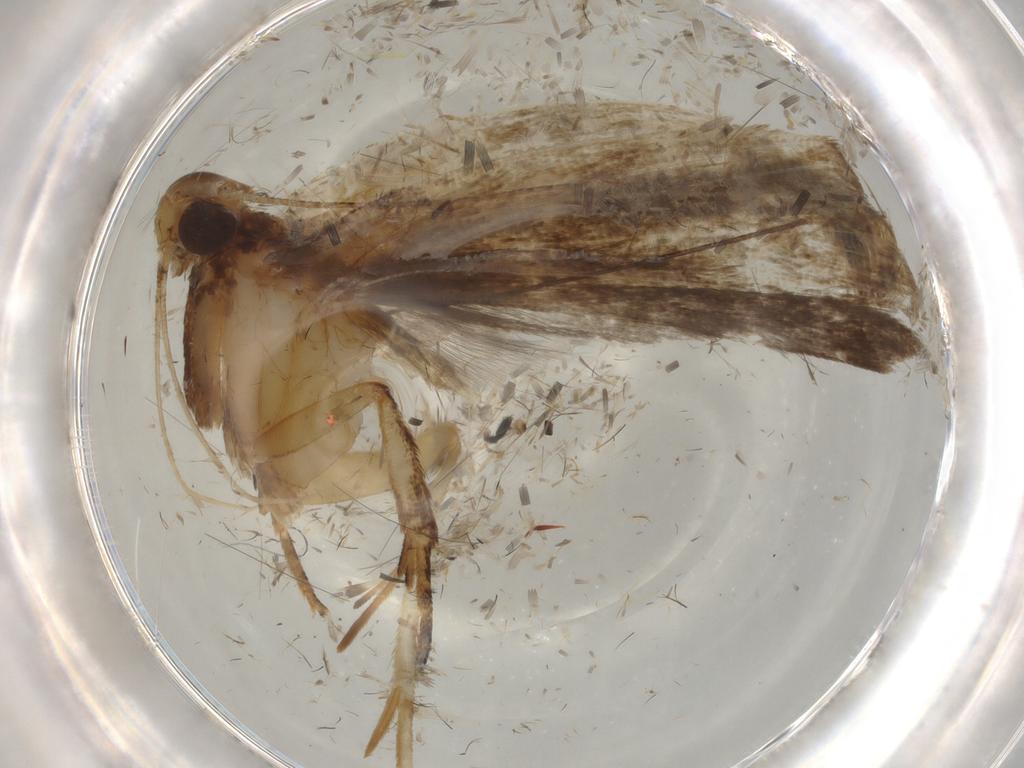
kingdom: Animalia
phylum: Arthropoda
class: Insecta
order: Lepidoptera
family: Gelechiidae
